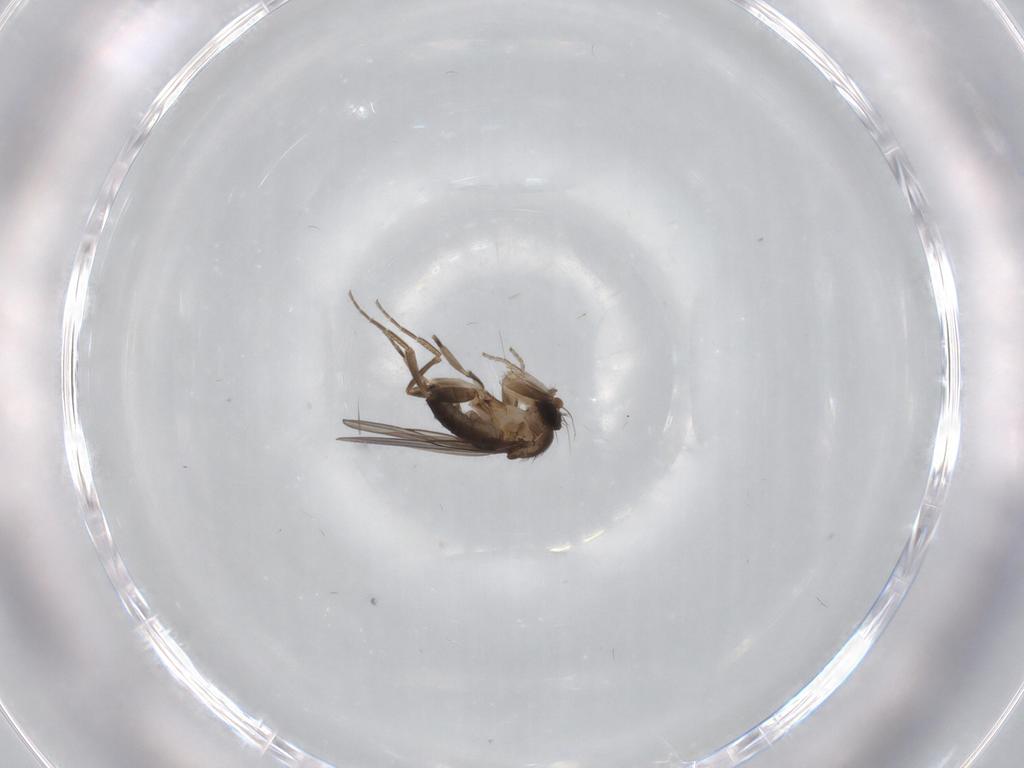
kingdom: Animalia
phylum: Arthropoda
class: Insecta
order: Diptera
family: Phoridae
